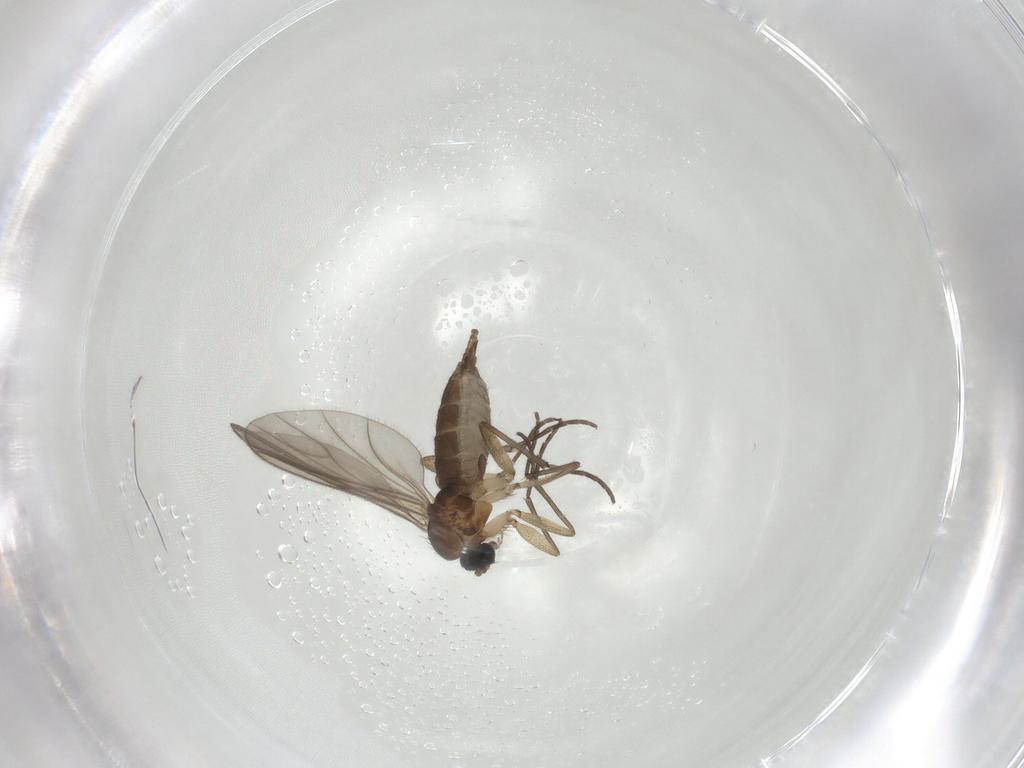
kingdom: Animalia
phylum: Arthropoda
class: Insecta
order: Diptera
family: Sciaridae
